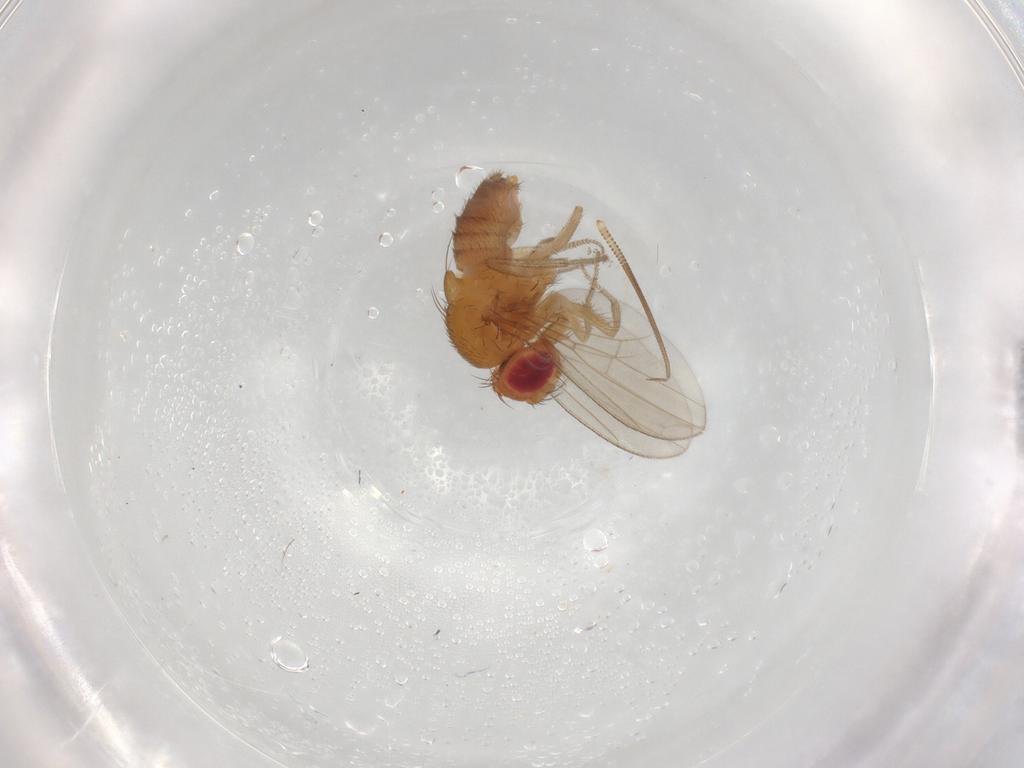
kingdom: Animalia
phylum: Arthropoda
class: Insecta
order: Diptera
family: Drosophilidae
